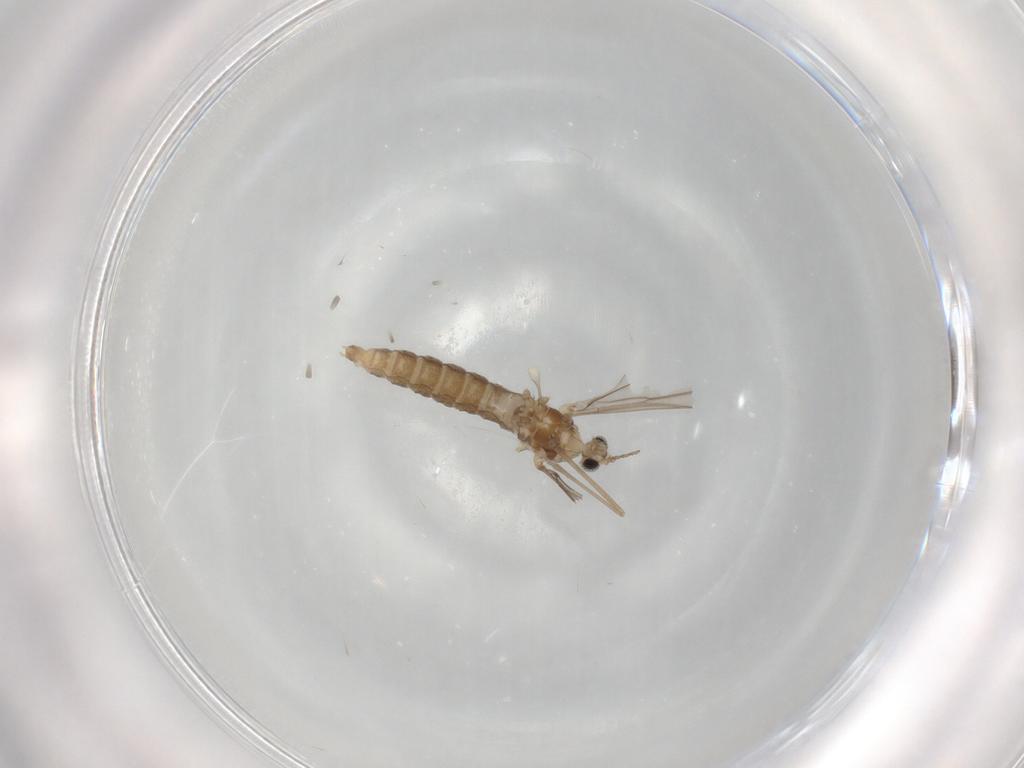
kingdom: Animalia
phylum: Arthropoda
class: Insecta
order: Diptera
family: Cecidomyiidae
